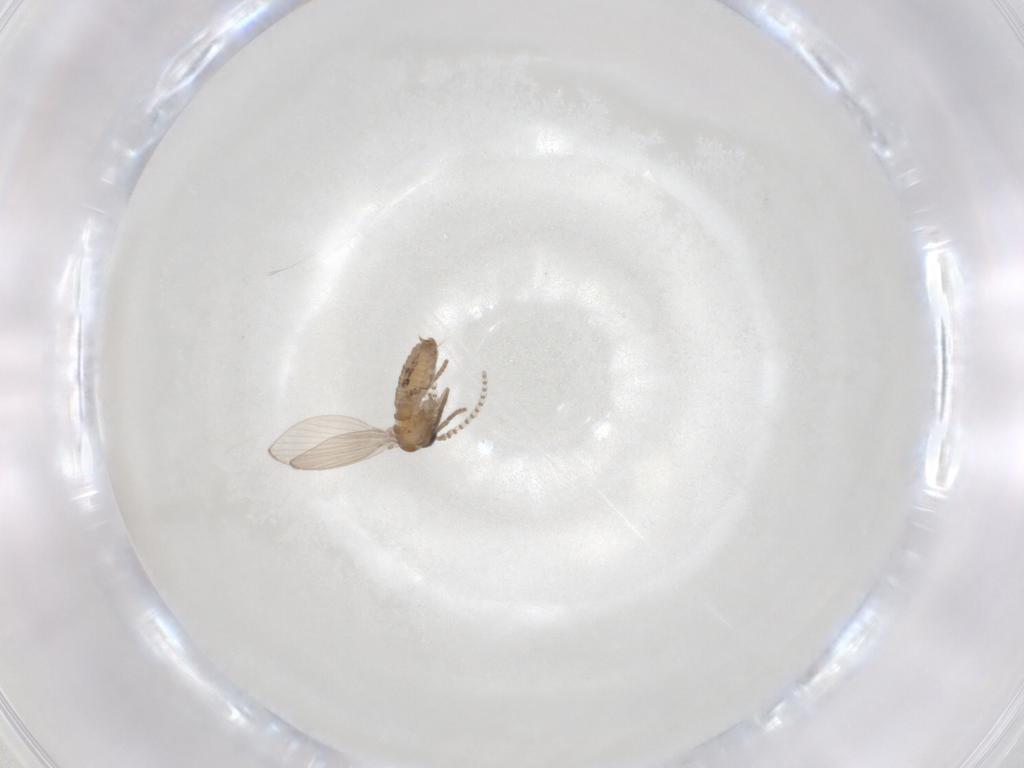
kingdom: Animalia
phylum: Arthropoda
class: Insecta
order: Diptera
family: Psychodidae
